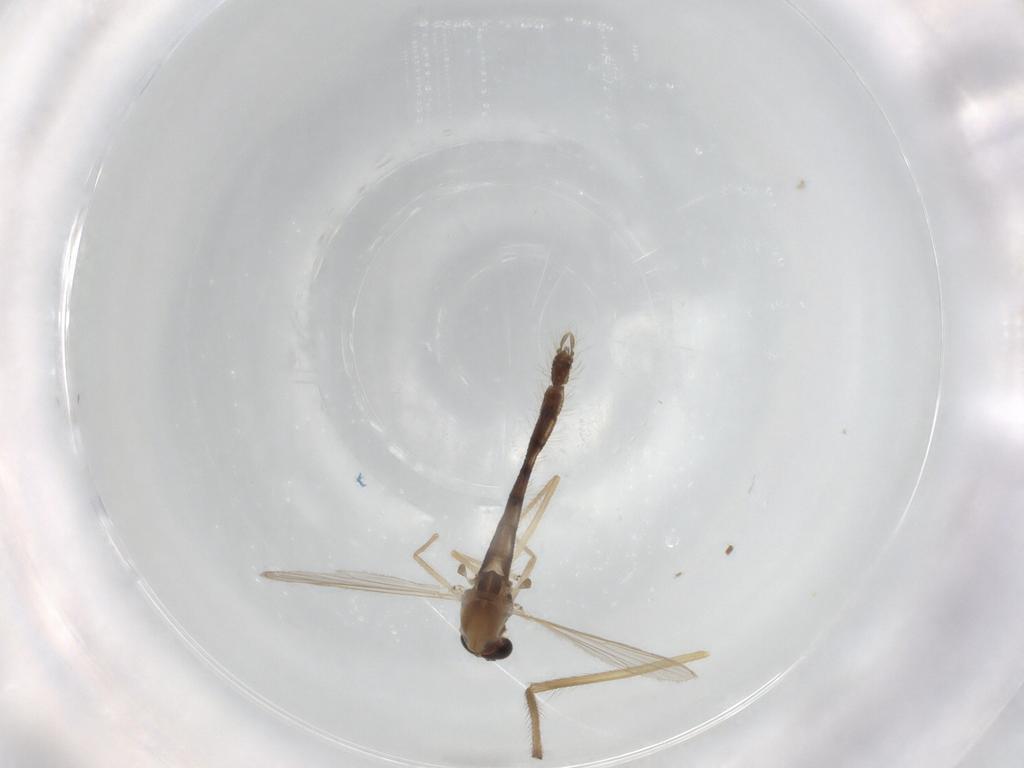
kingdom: Animalia
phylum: Arthropoda
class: Insecta
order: Diptera
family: Chironomidae
